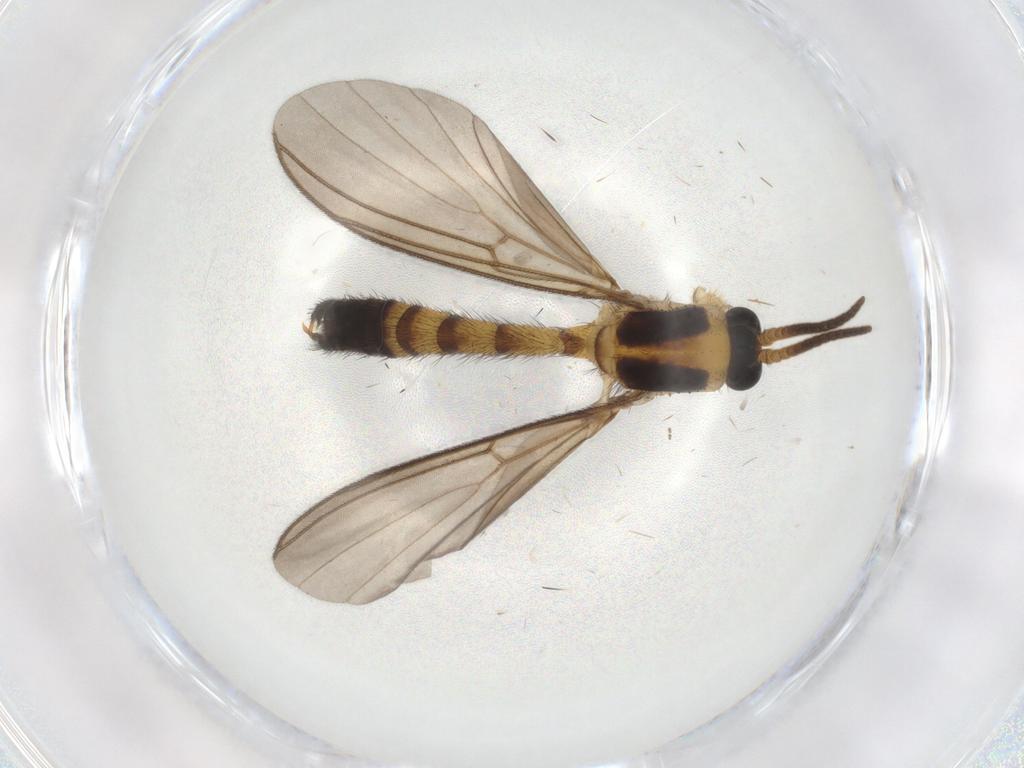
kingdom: Animalia
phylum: Arthropoda
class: Insecta
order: Diptera
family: Mycetophilidae
